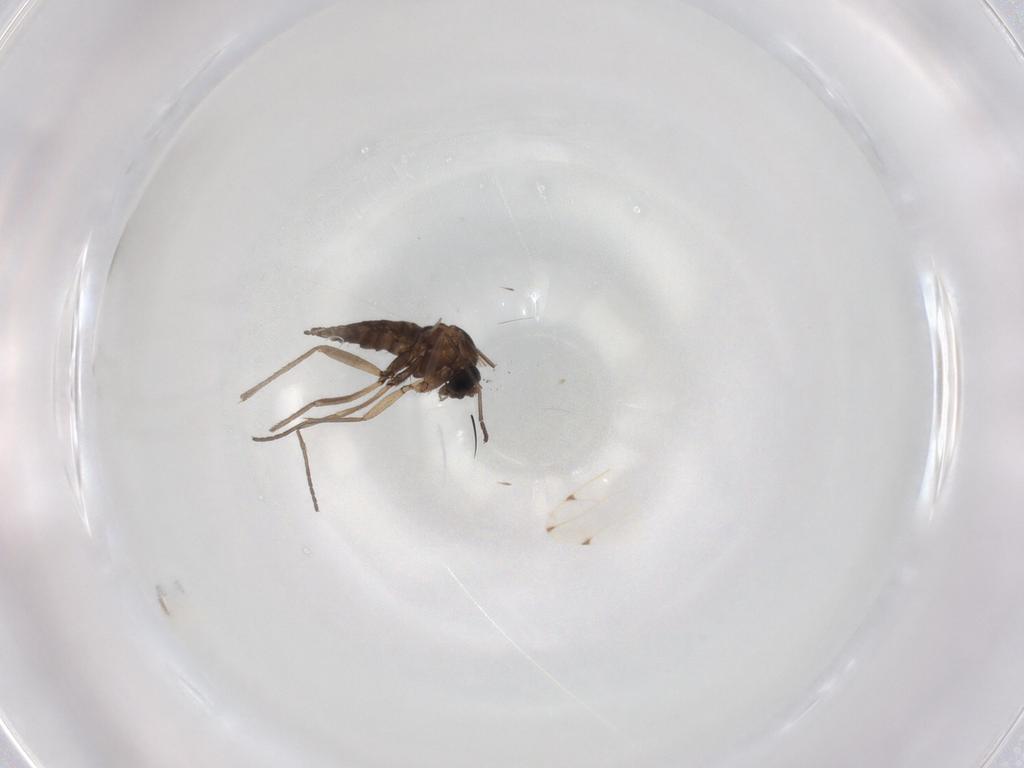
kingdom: Animalia
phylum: Arthropoda
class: Insecta
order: Diptera
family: Sciaridae
